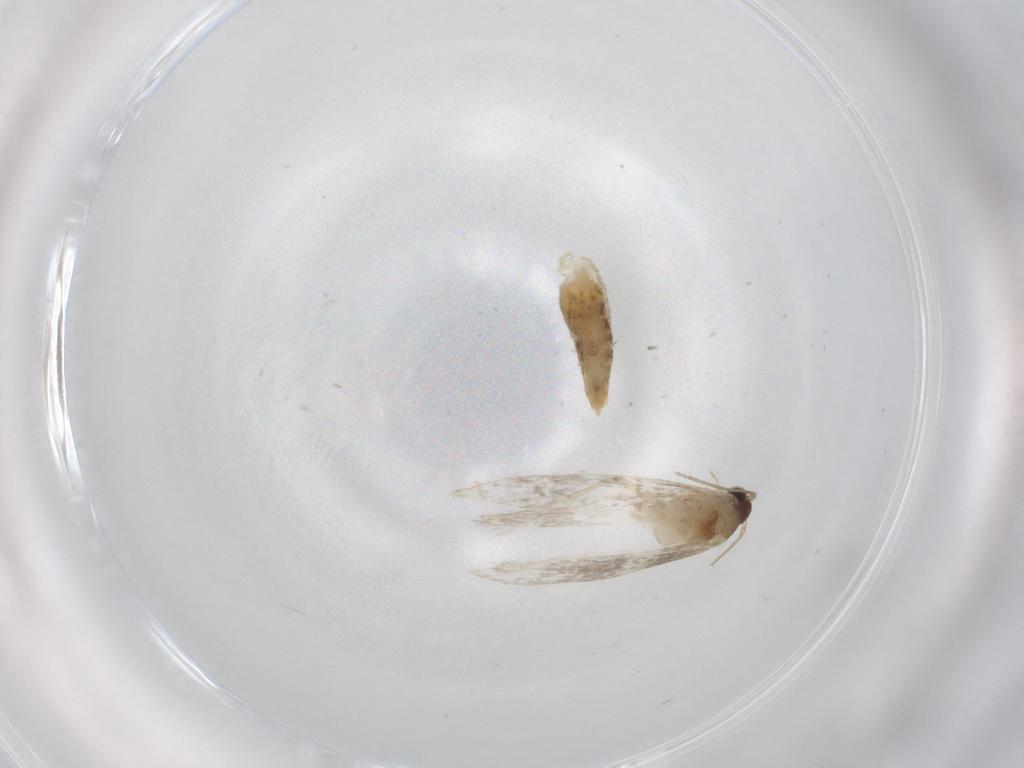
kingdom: Animalia
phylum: Arthropoda
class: Insecta
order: Lepidoptera
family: Tineidae
